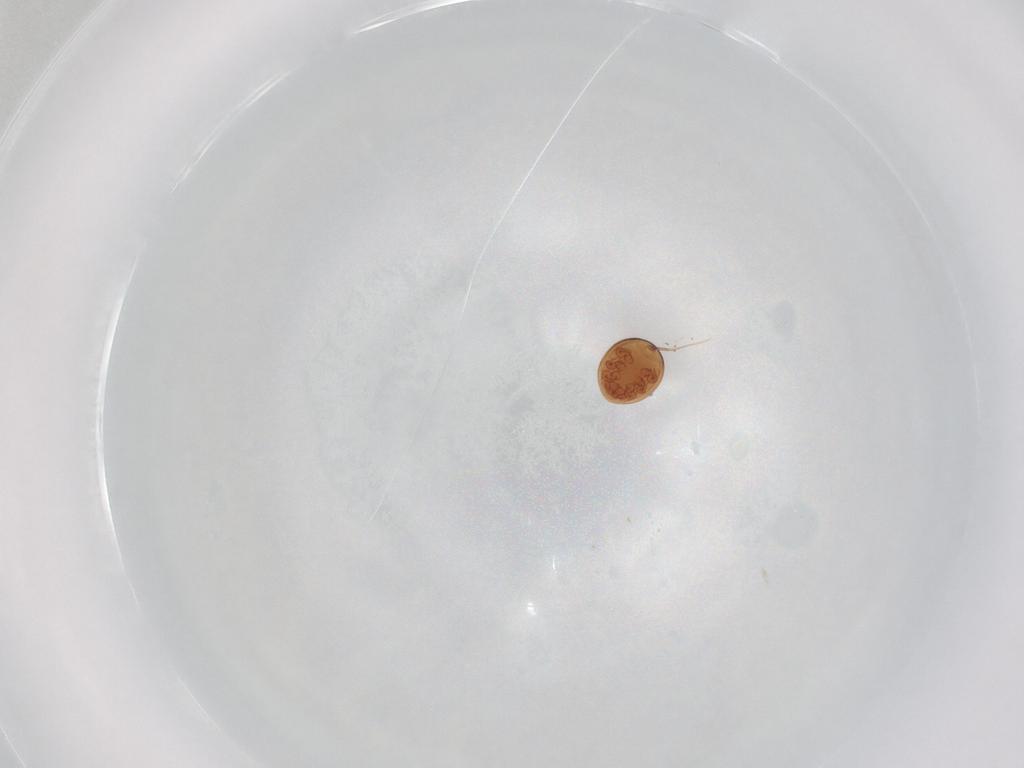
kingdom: Animalia
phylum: Arthropoda
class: Arachnida
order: Mesostigmata
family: Uropodidae
